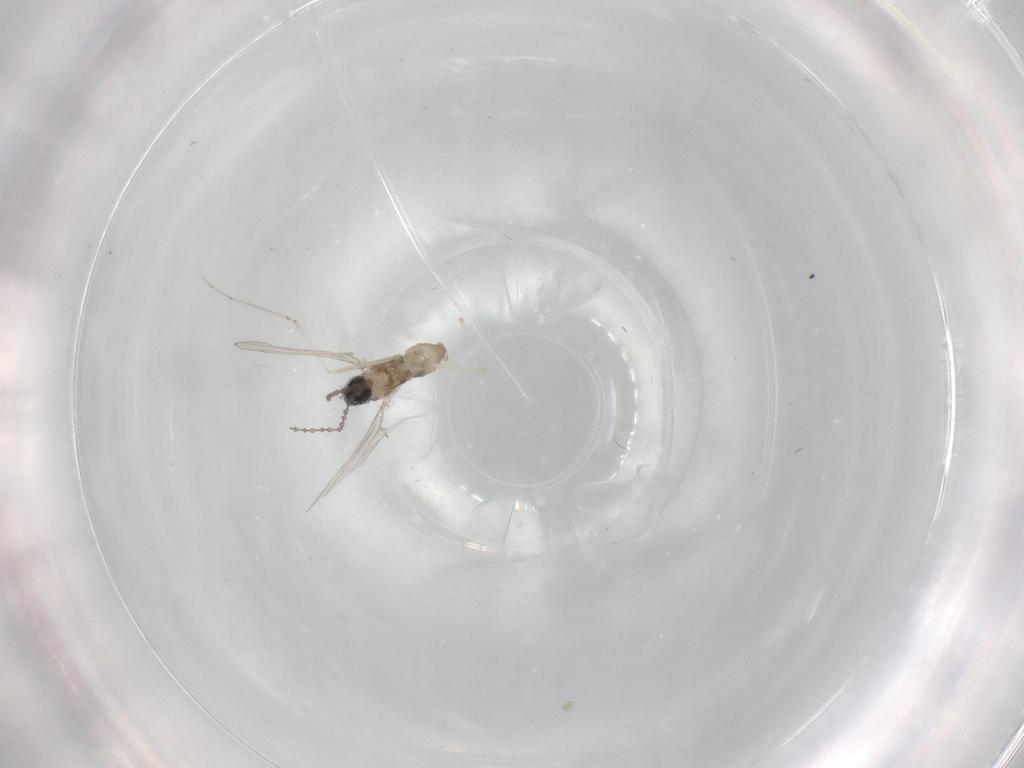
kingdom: Animalia
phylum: Arthropoda
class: Insecta
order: Diptera
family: Cecidomyiidae
